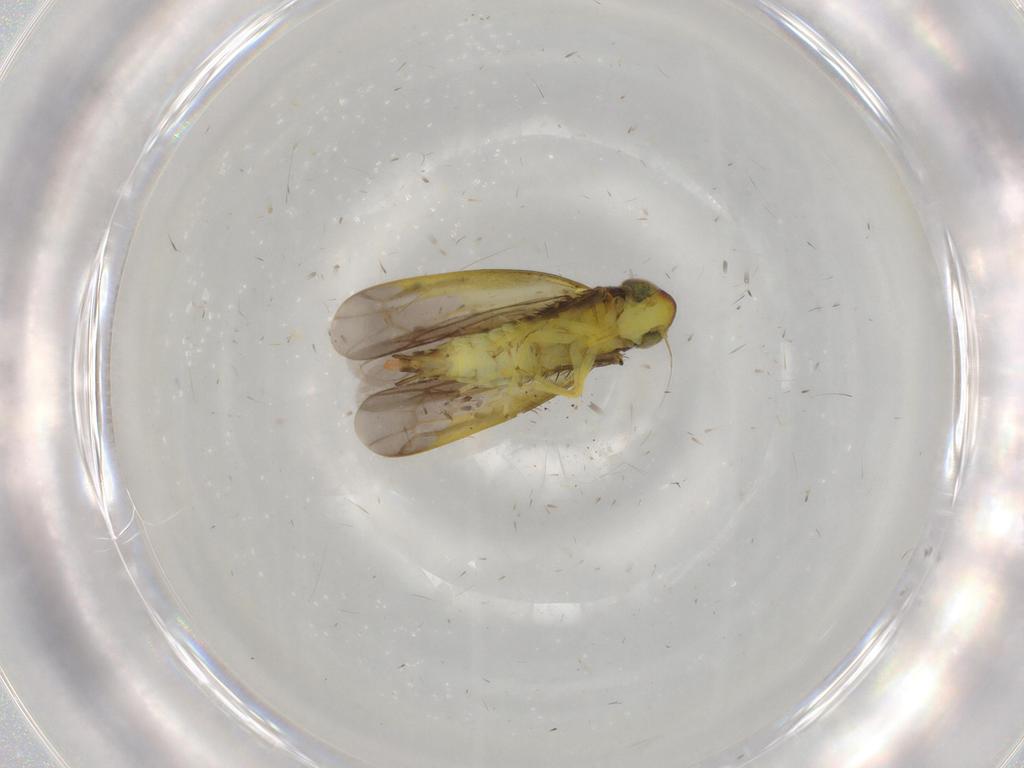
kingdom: Animalia
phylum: Arthropoda
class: Insecta
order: Hemiptera
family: Cicadellidae
